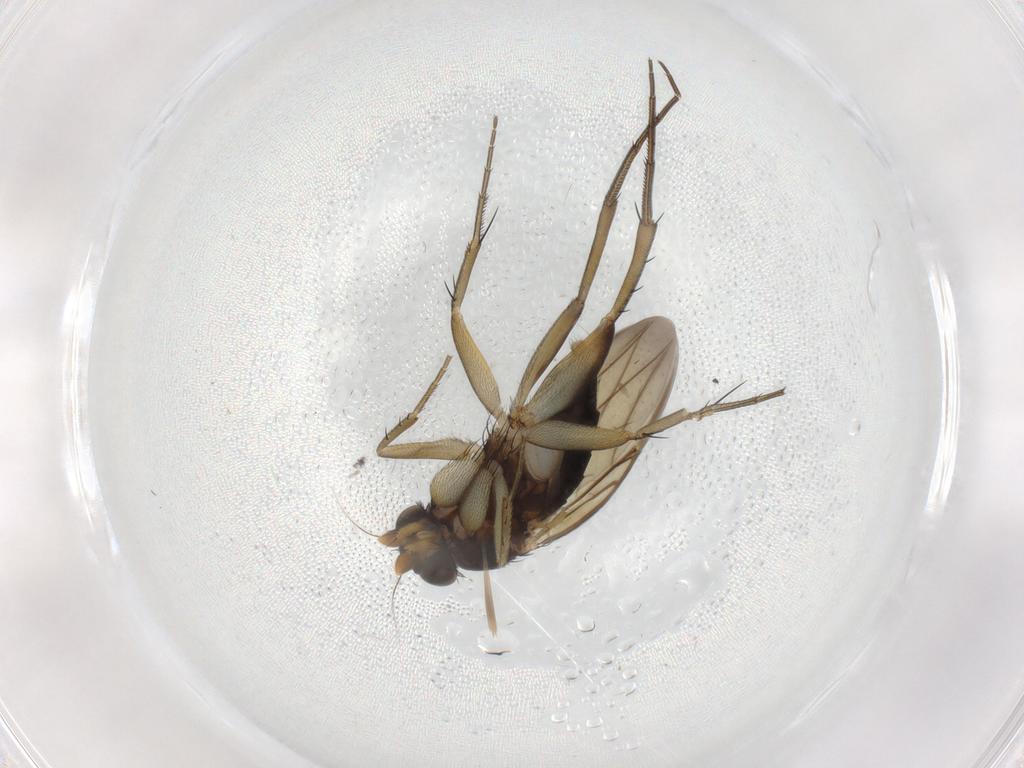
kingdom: Animalia
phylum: Arthropoda
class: Insecta
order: Diptera
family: Phoridae
